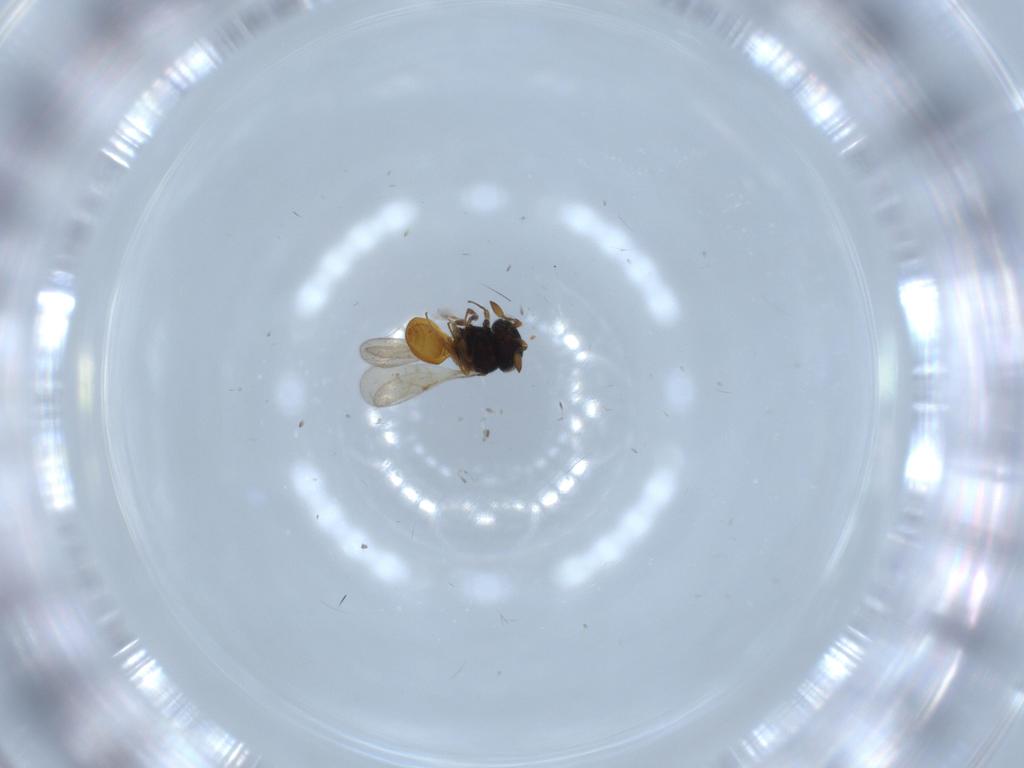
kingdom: Animalia
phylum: Arthropoda
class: Insecta
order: Hymenoptera
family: Scelionidae
